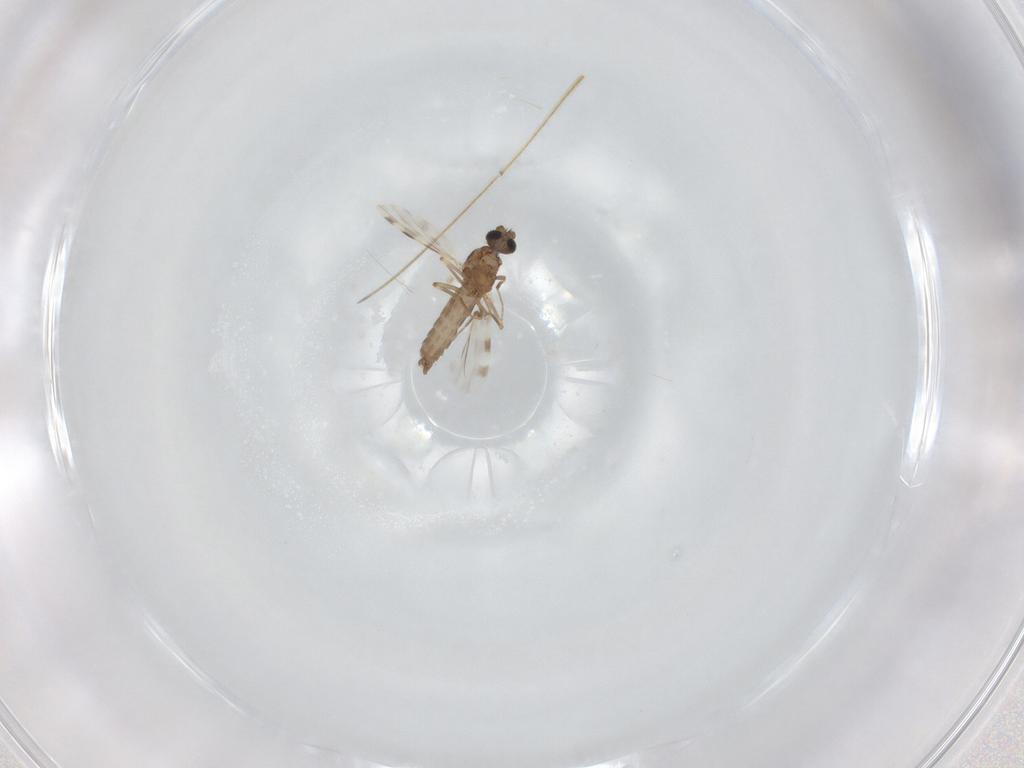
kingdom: Animalia
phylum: Arthropoda
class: Insecta
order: Diptera
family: Ceratopogonidae
